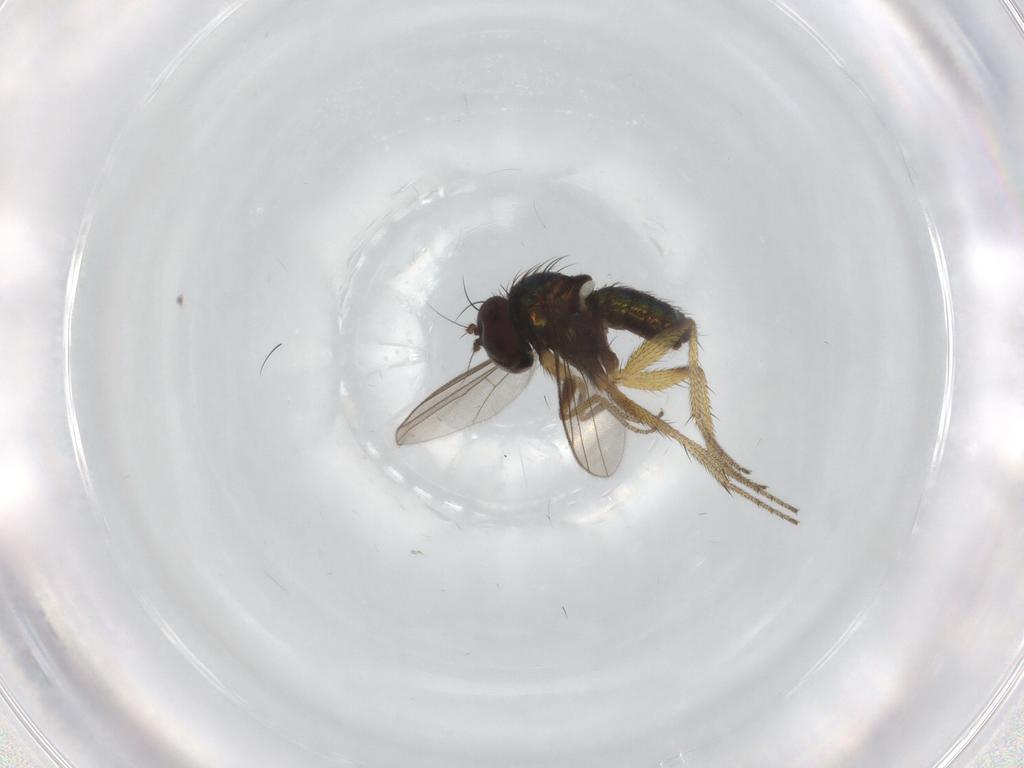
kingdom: Animalia
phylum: Arthropoda
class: Insecta
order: Diptera
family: Dolichopodidae
